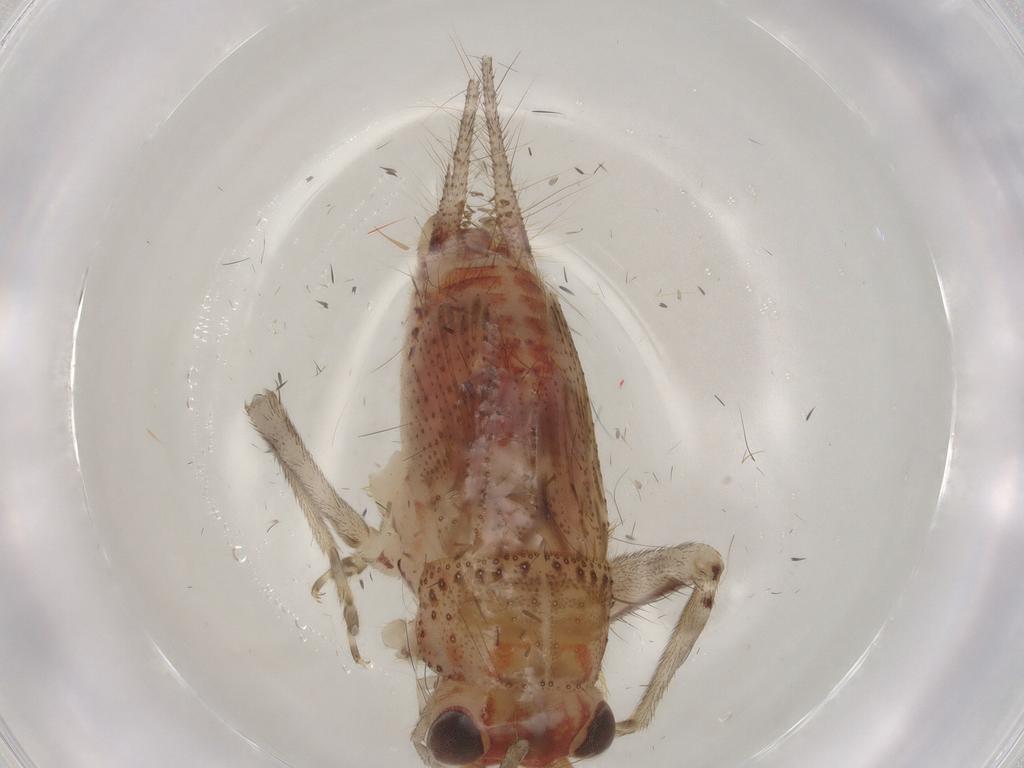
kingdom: Animalia
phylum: Arthropoda
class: Insecta
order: Orthoptera
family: Trigonidiidae
